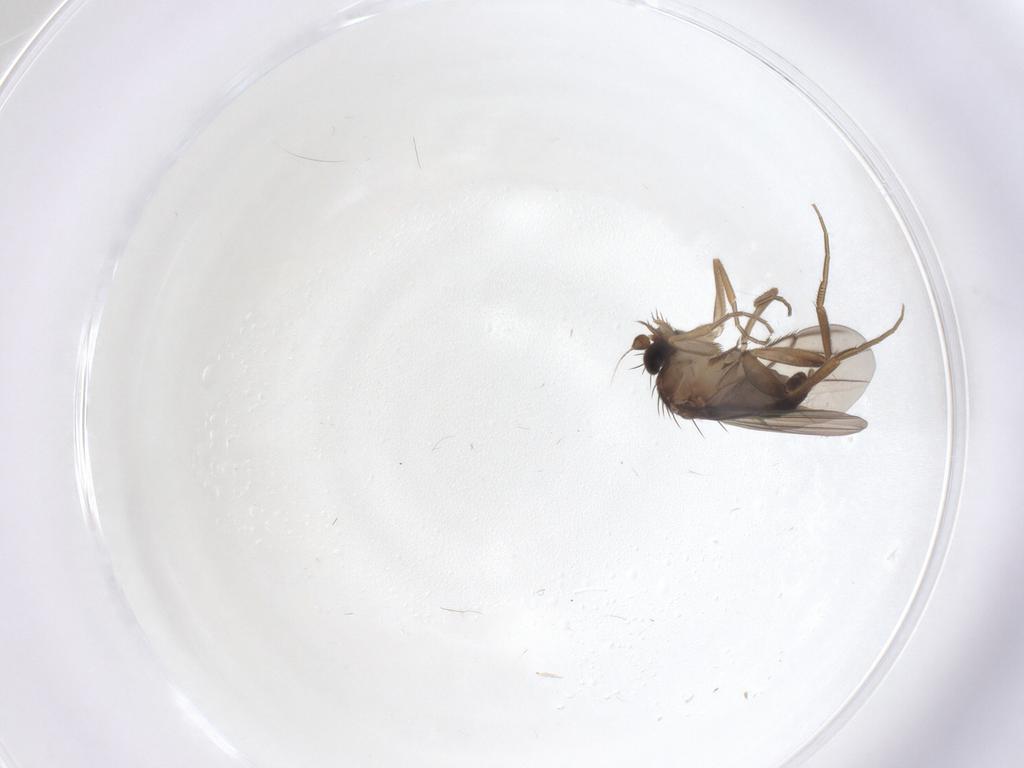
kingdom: Animalia
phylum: Arthropoda
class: Insecta
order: Diptera
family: Phoridae
